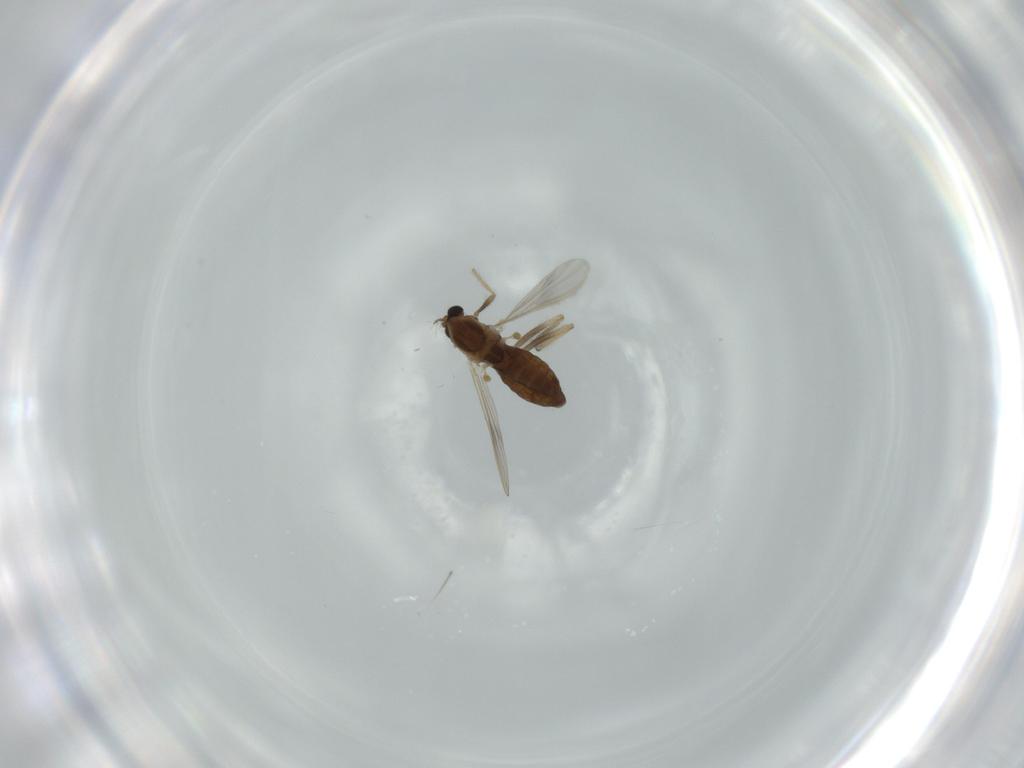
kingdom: Animalia
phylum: Arthropoda
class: Insecta
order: Diptera
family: Chironomidae
